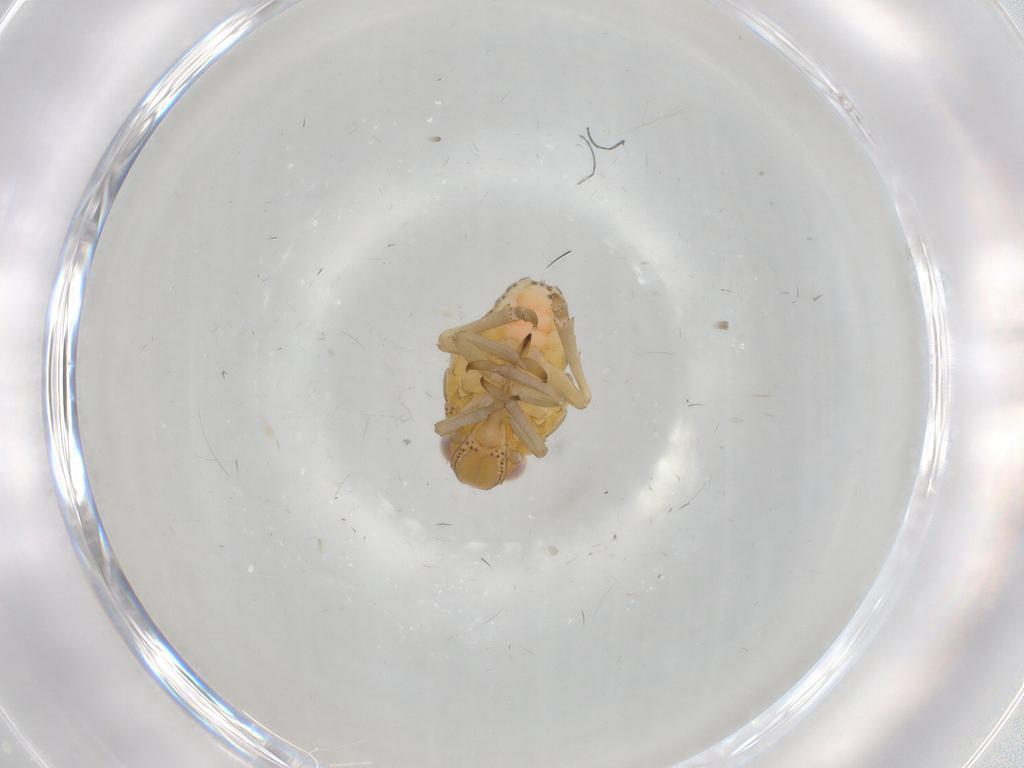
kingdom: Animalia
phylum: Arthropoda
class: Insecta
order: Hemiptera
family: Tropiduchidae
